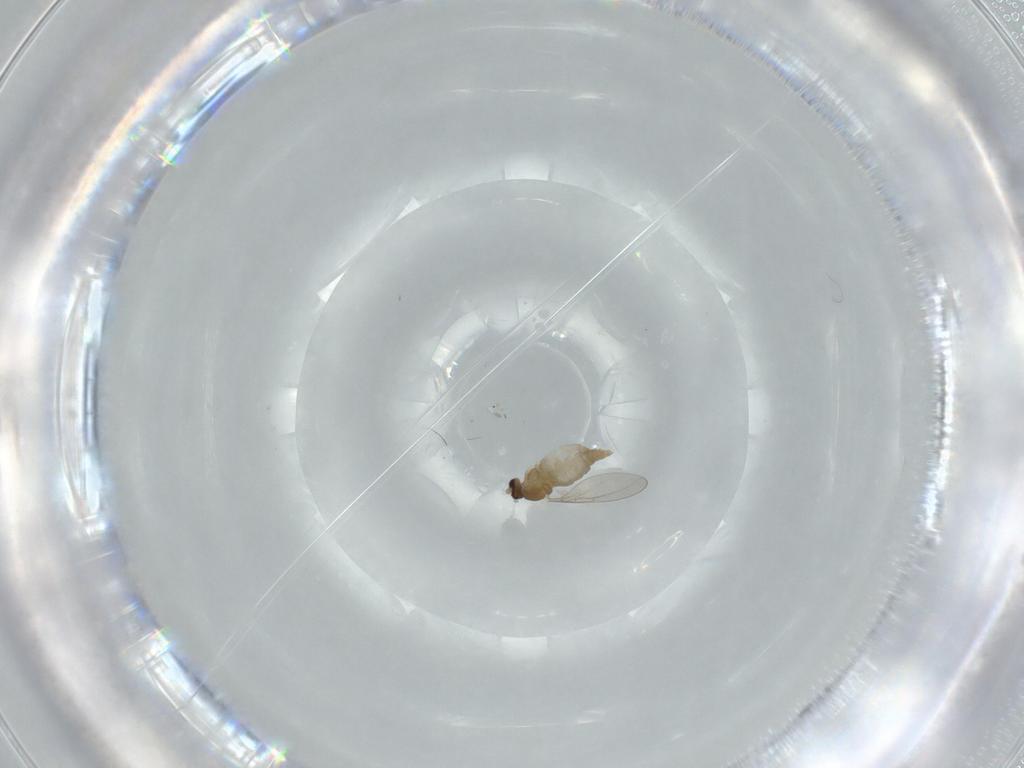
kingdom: Animalia
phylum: Arthropoda
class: Insecta
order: Diptera
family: Cecidomyiidae
